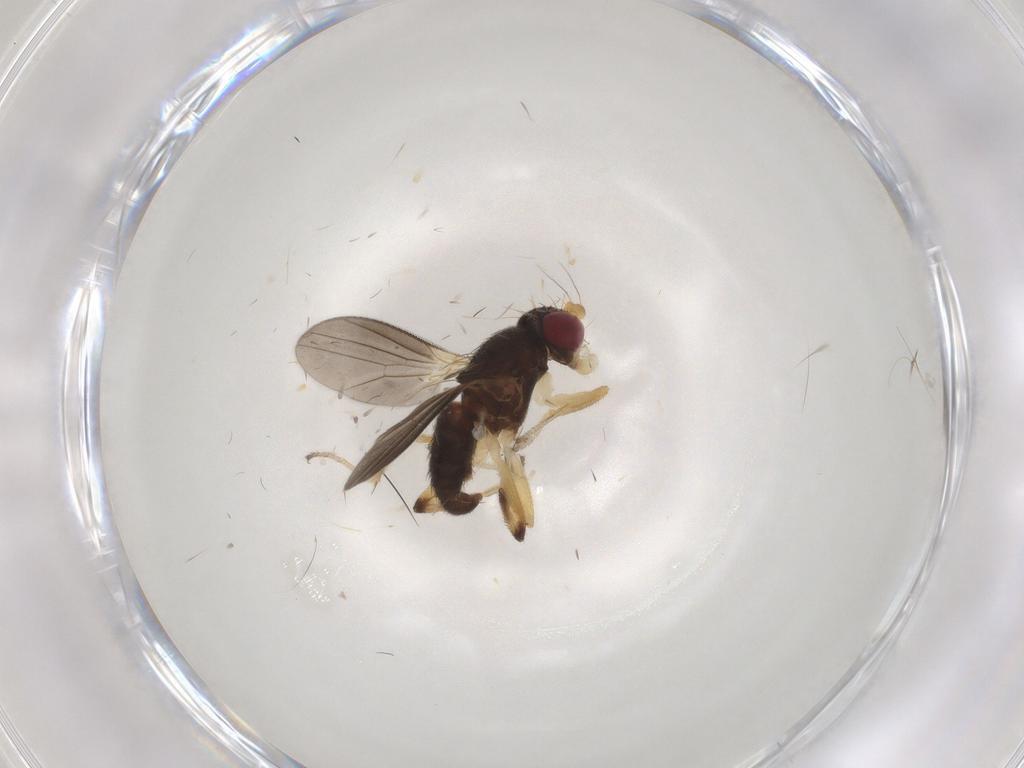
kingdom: Animalia
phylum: Arthropoda
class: Insecta
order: Diptera
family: Clusiidae
